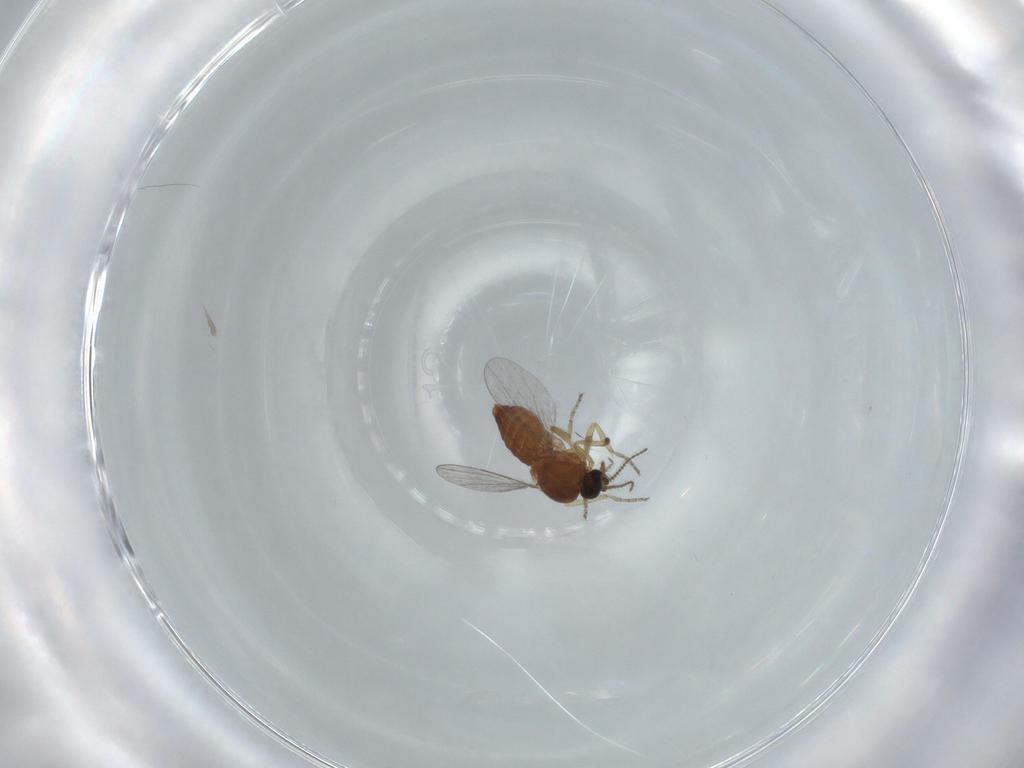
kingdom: Animalia
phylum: Arthropoda
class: Insecta
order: Diptera
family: Ceratopogonidae
